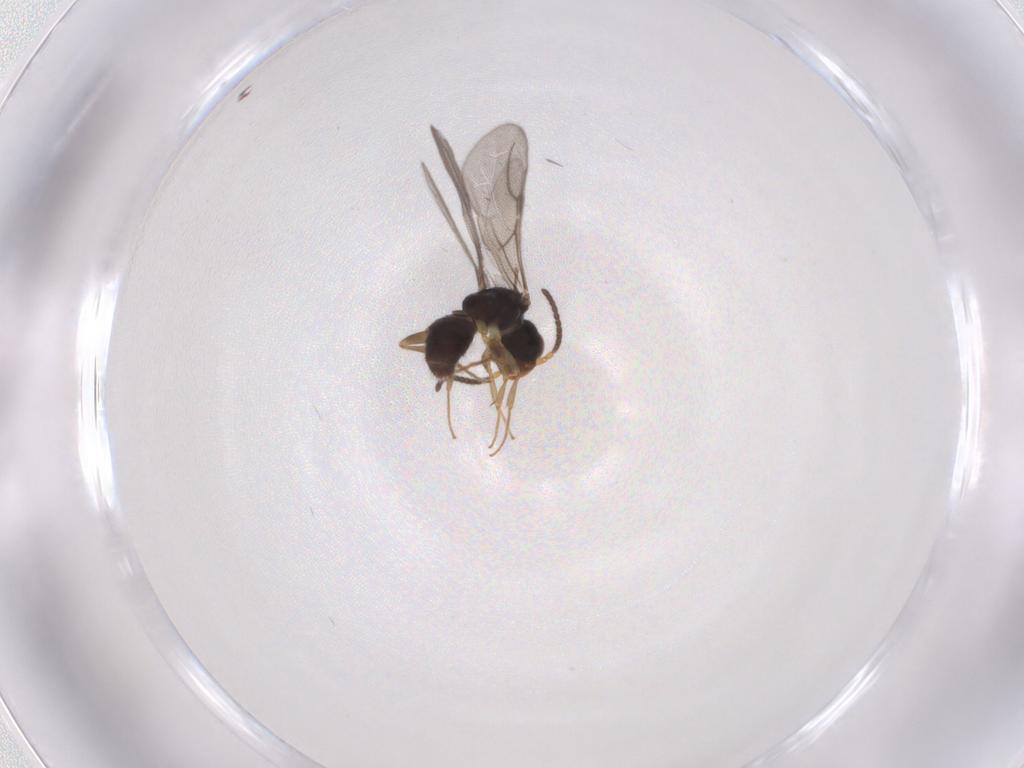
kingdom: Animalia
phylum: Arthropoda
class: Insecta
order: Hymenoptera
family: Bethylidae
